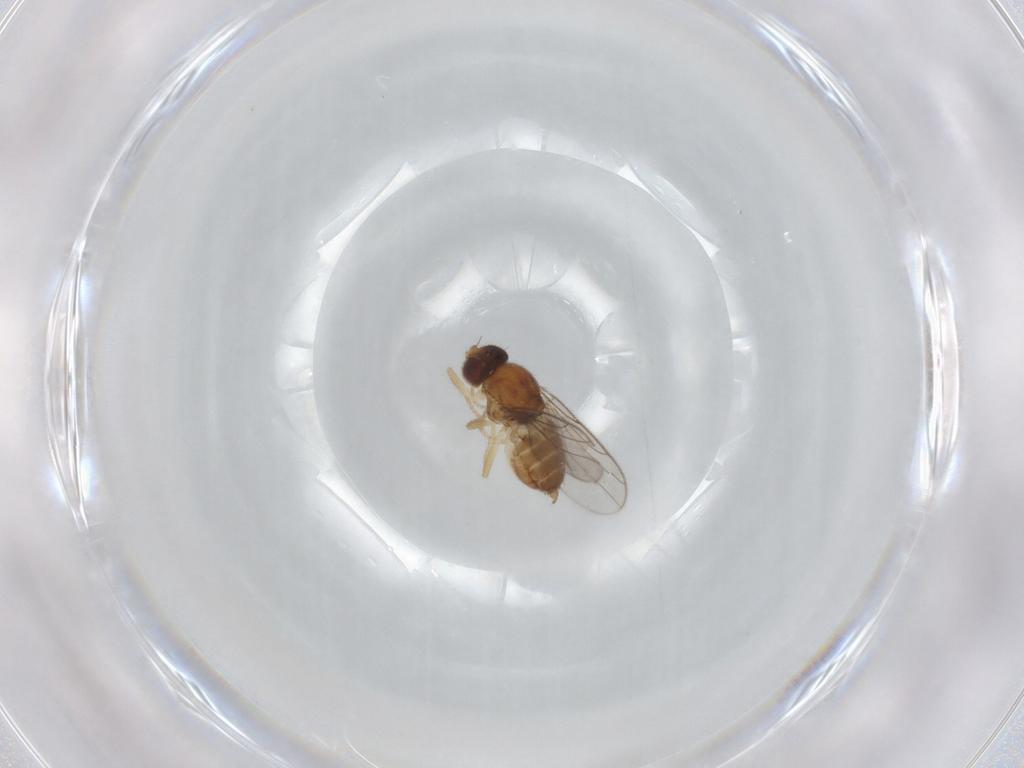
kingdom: Animalia
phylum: Arthropoda
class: Insecta
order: Diptera
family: Chloropidae
